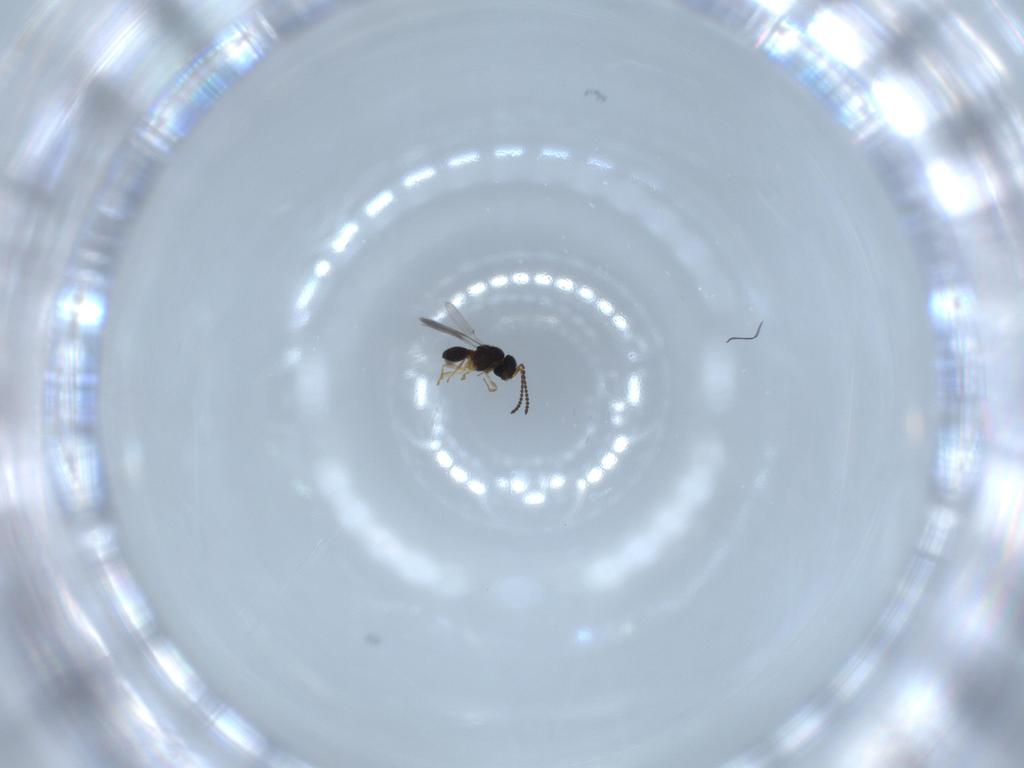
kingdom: Animalia
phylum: Arthropoda
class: Insecta
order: Hymenoptera
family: Scelionidae
